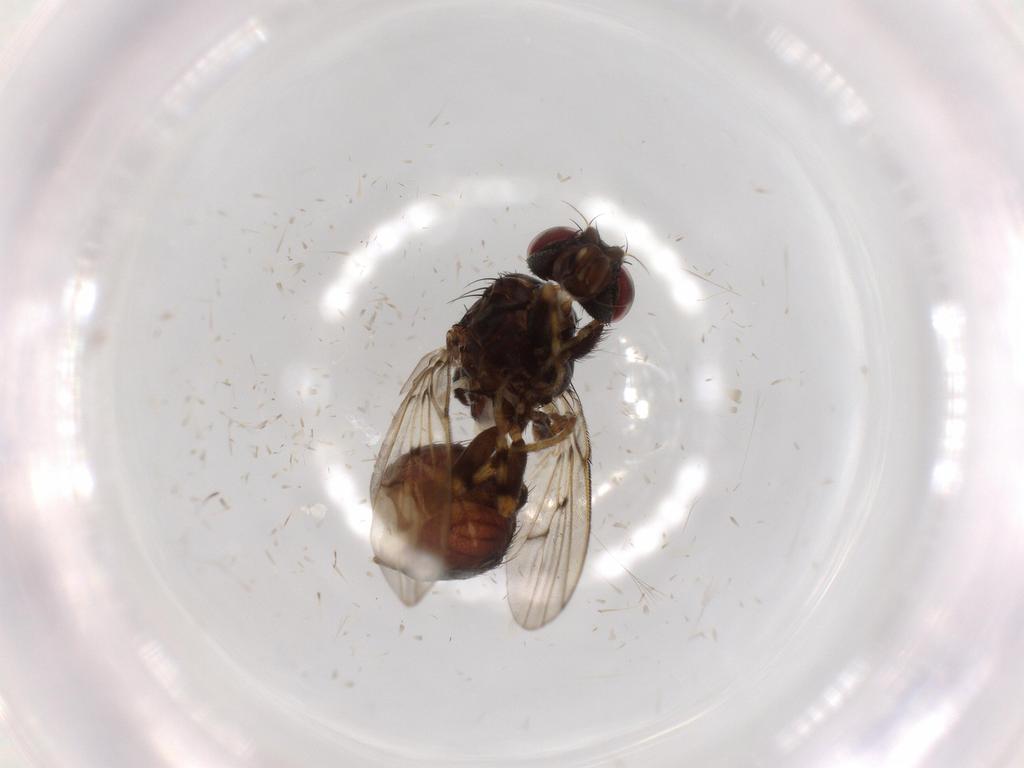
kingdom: Animalia
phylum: Arthropoda
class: Insecta
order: Diptera
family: Odiniidae
